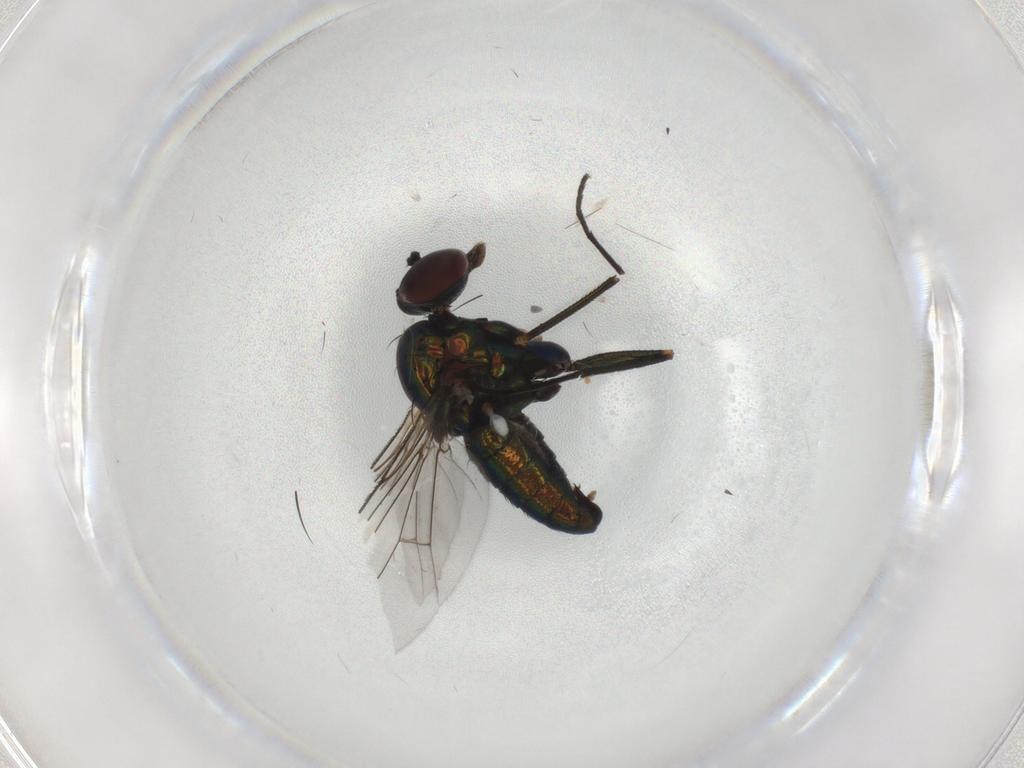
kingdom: Animalia
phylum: Arthropoda
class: Insecta
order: Diptera
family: Dolichopodidae
